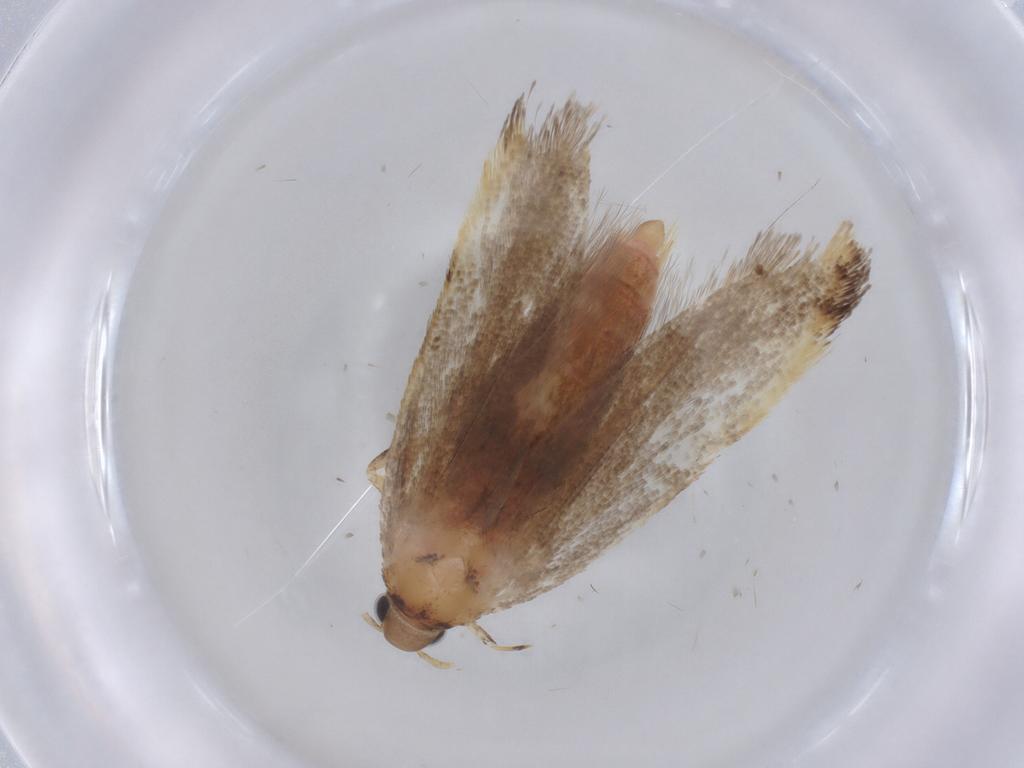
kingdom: Animalia
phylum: Arthropoda
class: Insecta
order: Lepidoptera
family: Autostichidae
